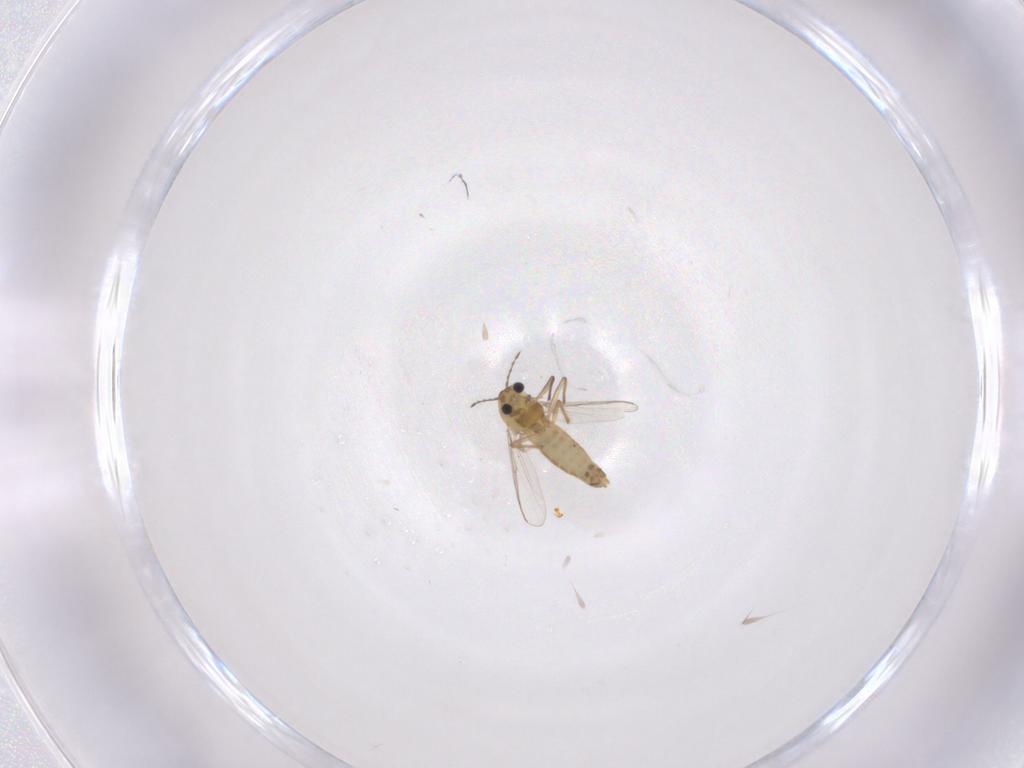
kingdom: Animalia
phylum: Arthropoda
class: Insecta
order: Diptera
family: Chironomidae
